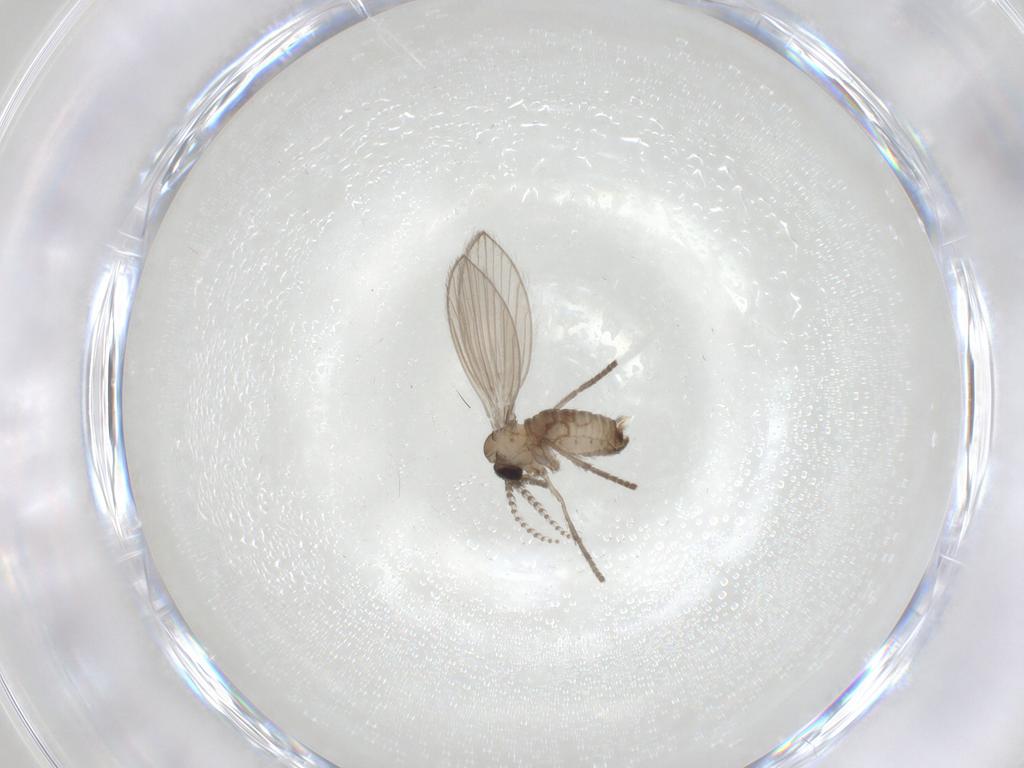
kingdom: Animalia
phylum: Arthropoda
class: Insecta
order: Diptera
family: Psychodidae
